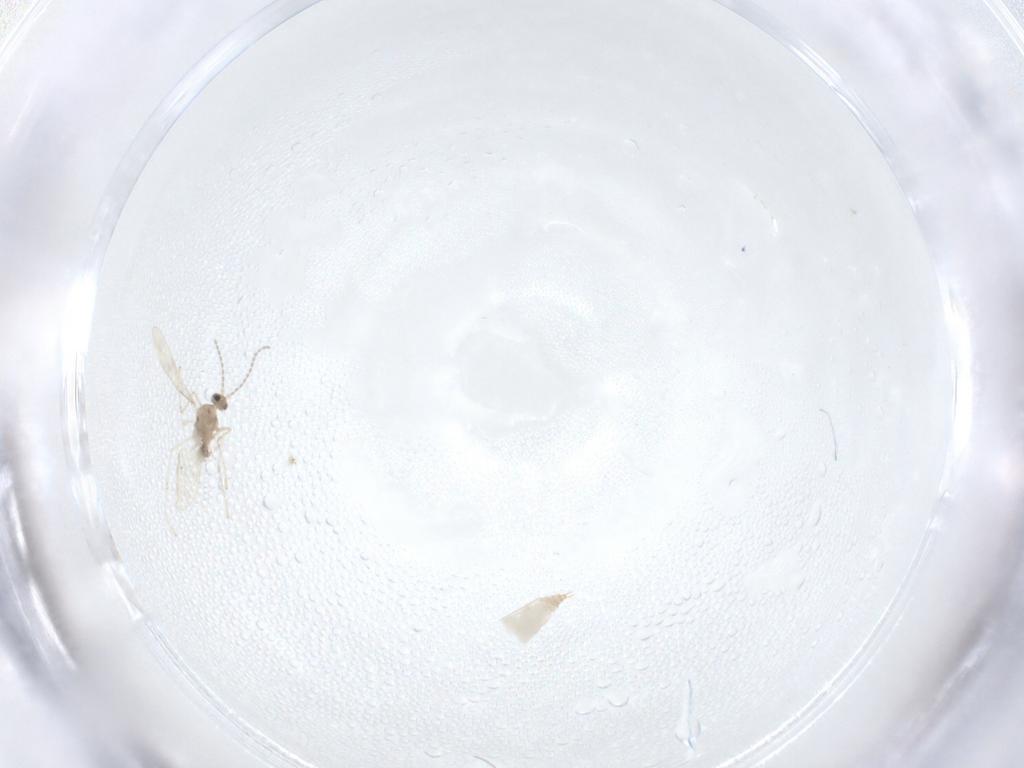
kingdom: Animalia
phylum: Arthropoda
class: Insecta
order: Diptera
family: Cecidomyiidae
